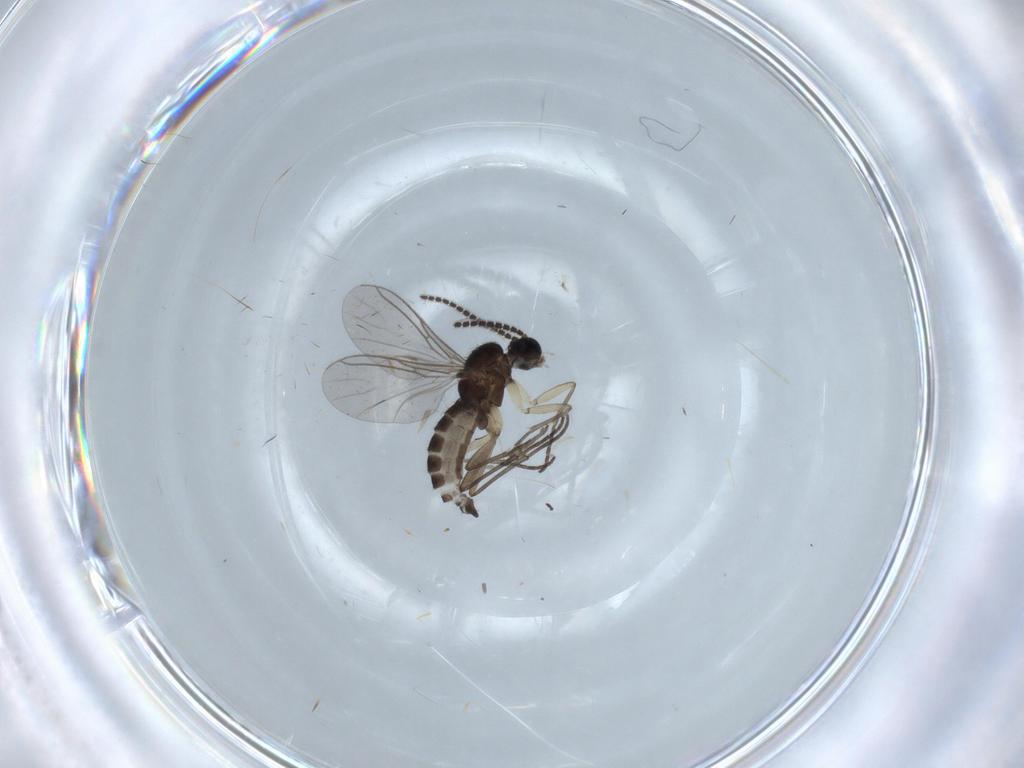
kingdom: Animalia
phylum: Arthropoda
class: Insecta
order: Diptera
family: Sciaridae
